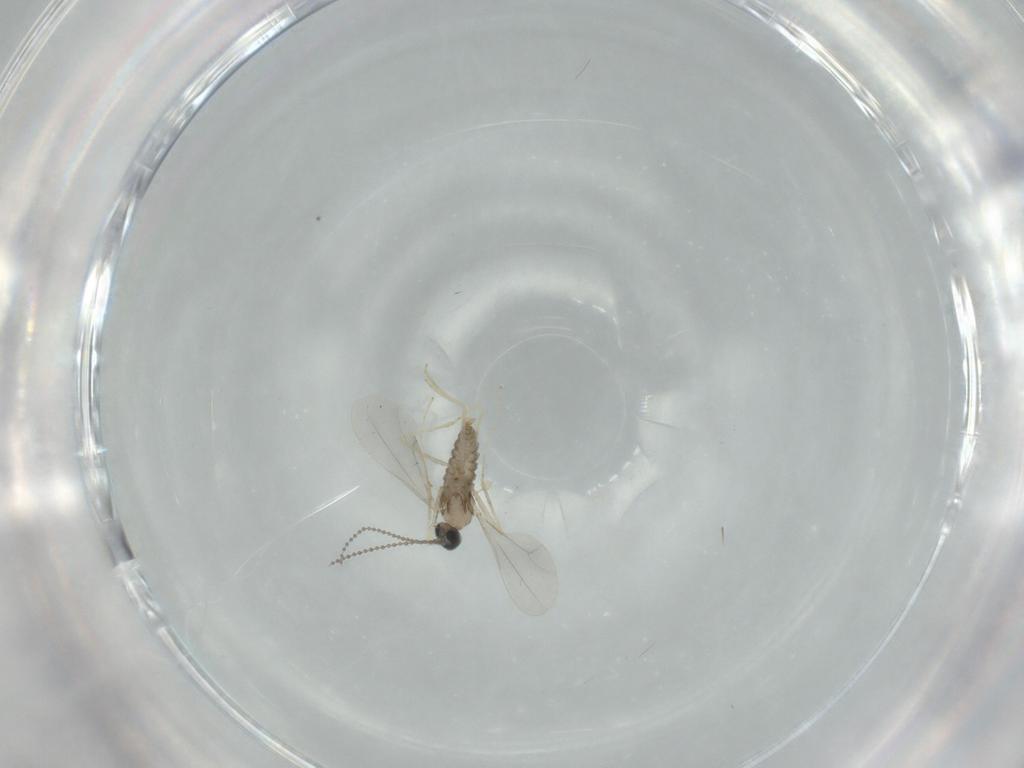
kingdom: Animalia
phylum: Arthropoda
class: Insecta
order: Diptera
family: Cecidomyiidae
